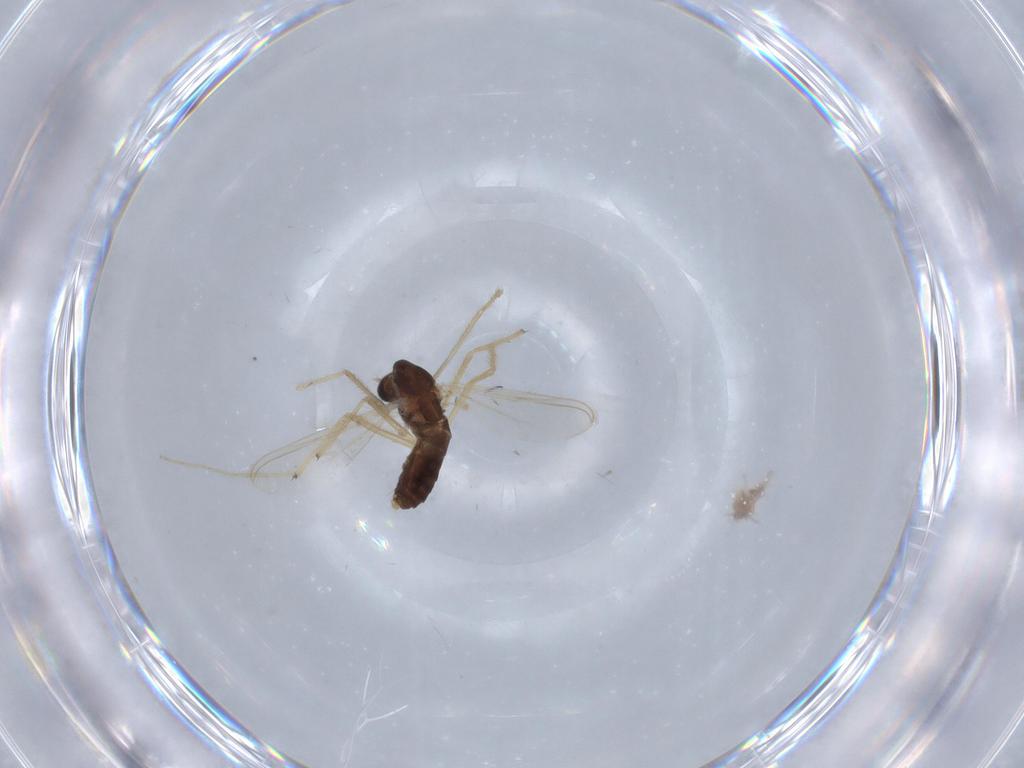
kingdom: Animalia
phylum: Arthropoda
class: Insecta
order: Diptera
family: Chironomidae
